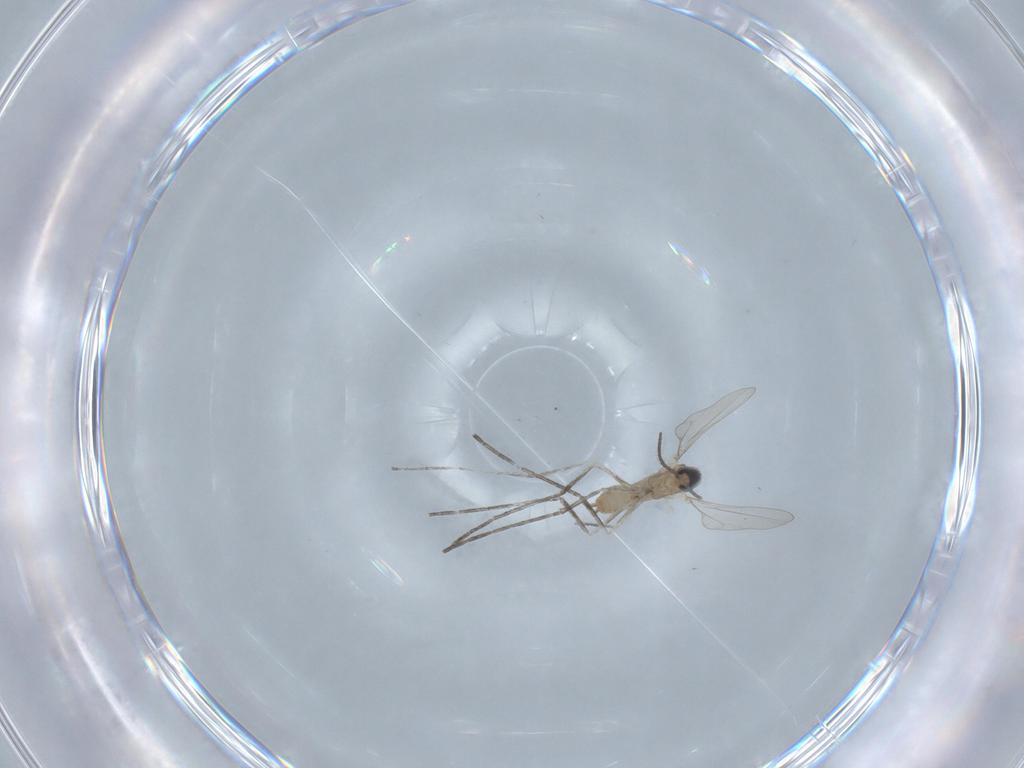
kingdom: Animalia
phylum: Arthropoda
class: Insecta
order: Diptera
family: Cecidomyiidae
